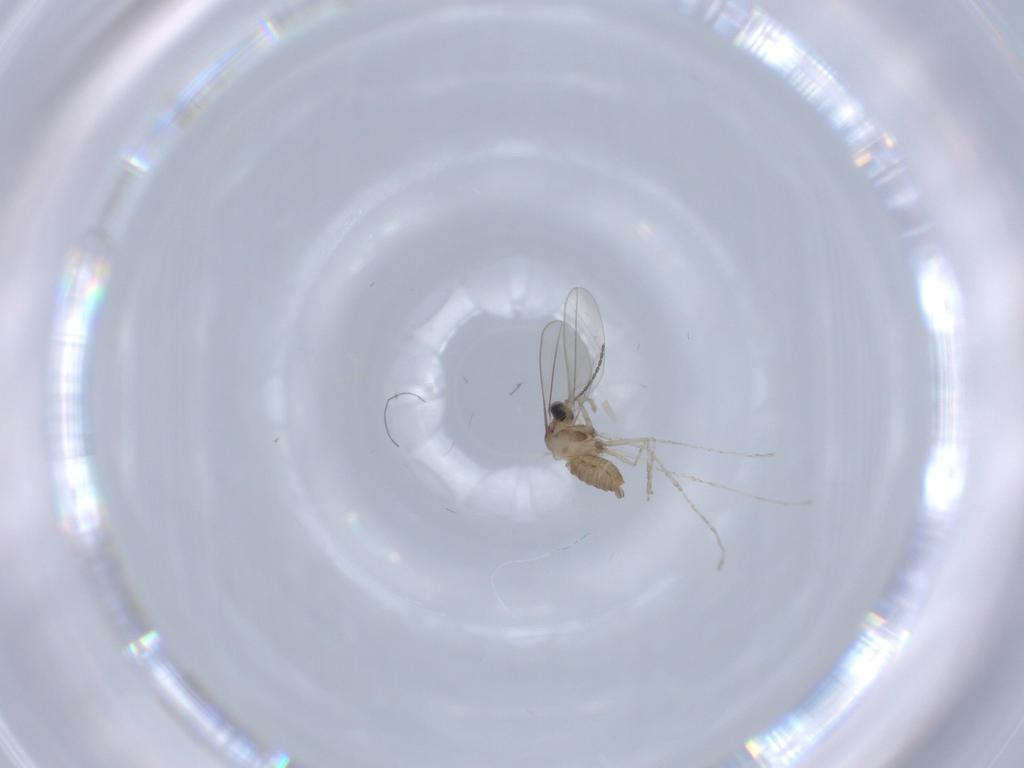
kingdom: Animalia
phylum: Arthropoda
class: Insecta
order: Diptera
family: Cecidomyiidae
